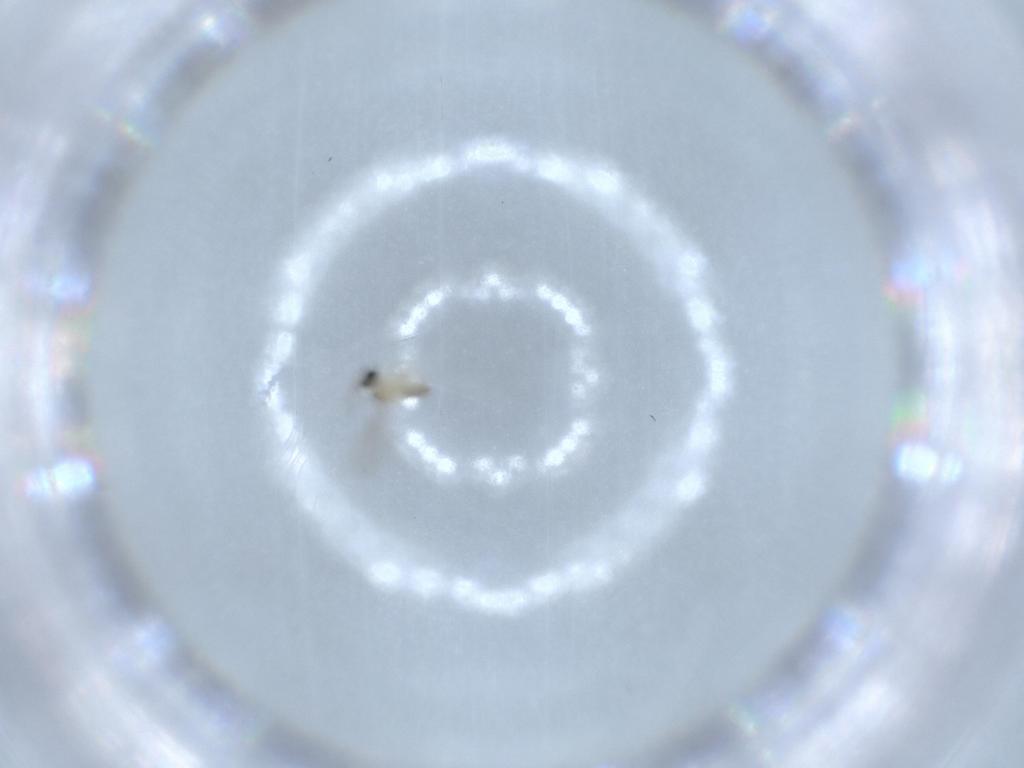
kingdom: Animalia
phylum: Arthropoda
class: Insecta
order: Diptera
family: Cecidomyiidae
